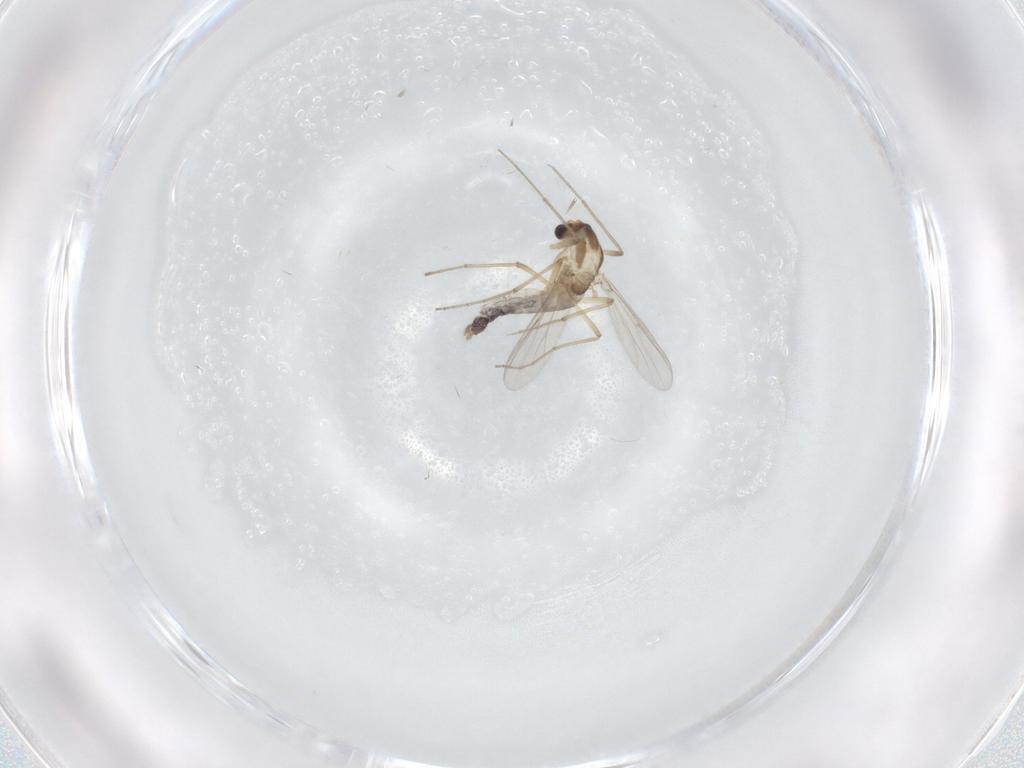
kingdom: Animalia
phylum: Arthropoda
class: Insecta
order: Diptera
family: Chironomidae
